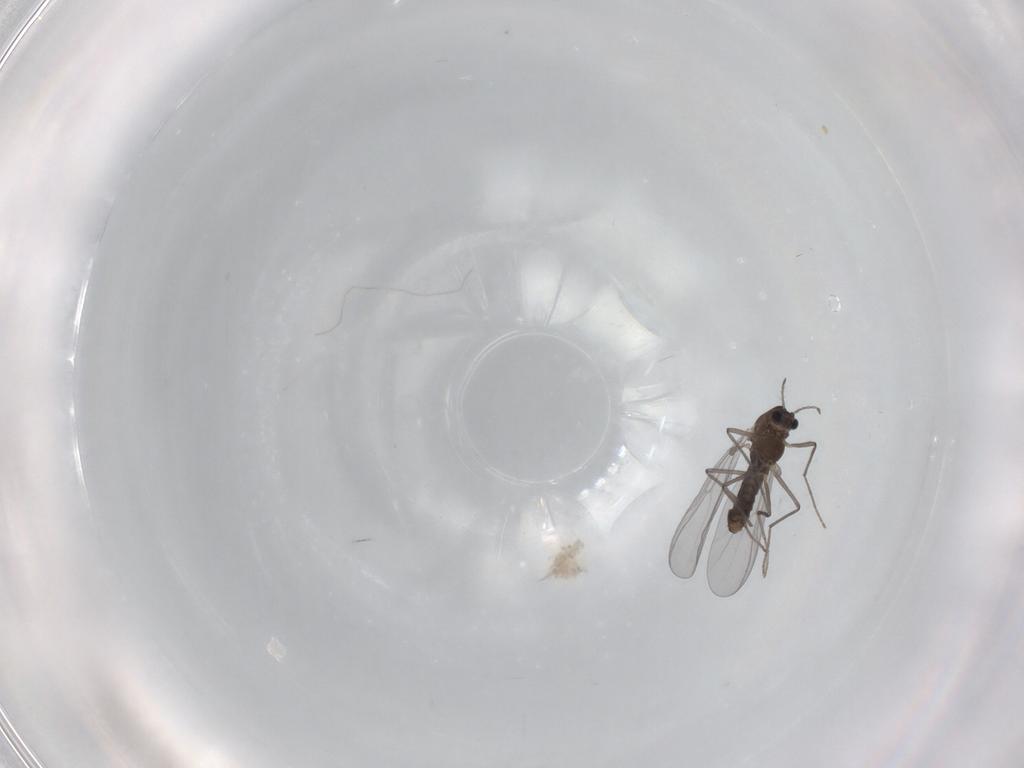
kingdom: Animalia
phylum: Arthropoda
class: Insecta
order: Diptera
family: Chironomidae
